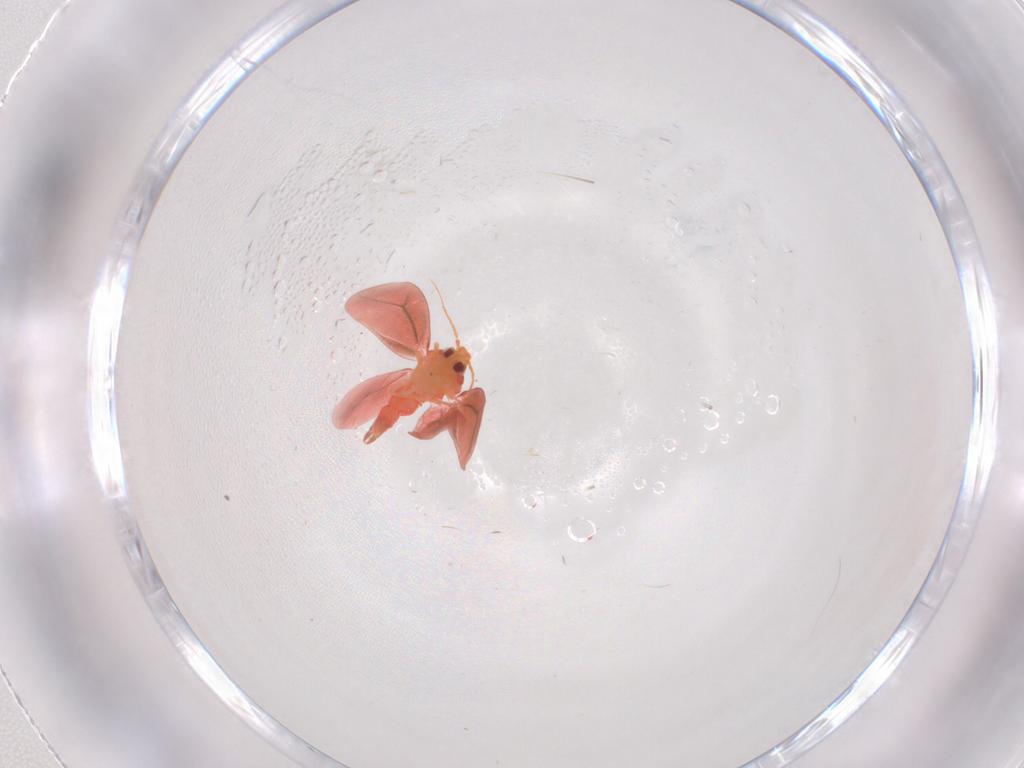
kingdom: Animalia
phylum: Arthropoda
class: Insecta
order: Hemiptera
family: Aleyrodidae
